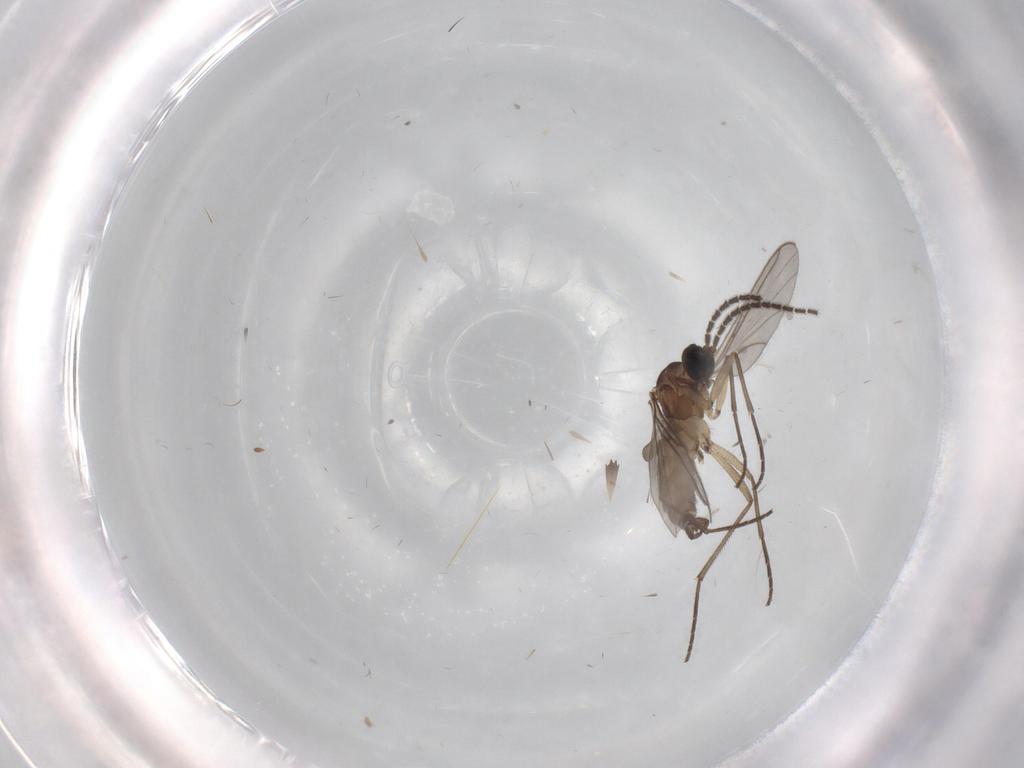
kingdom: Animalia
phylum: Arthropoda
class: Insecta
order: Diptera
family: Sciaridae
